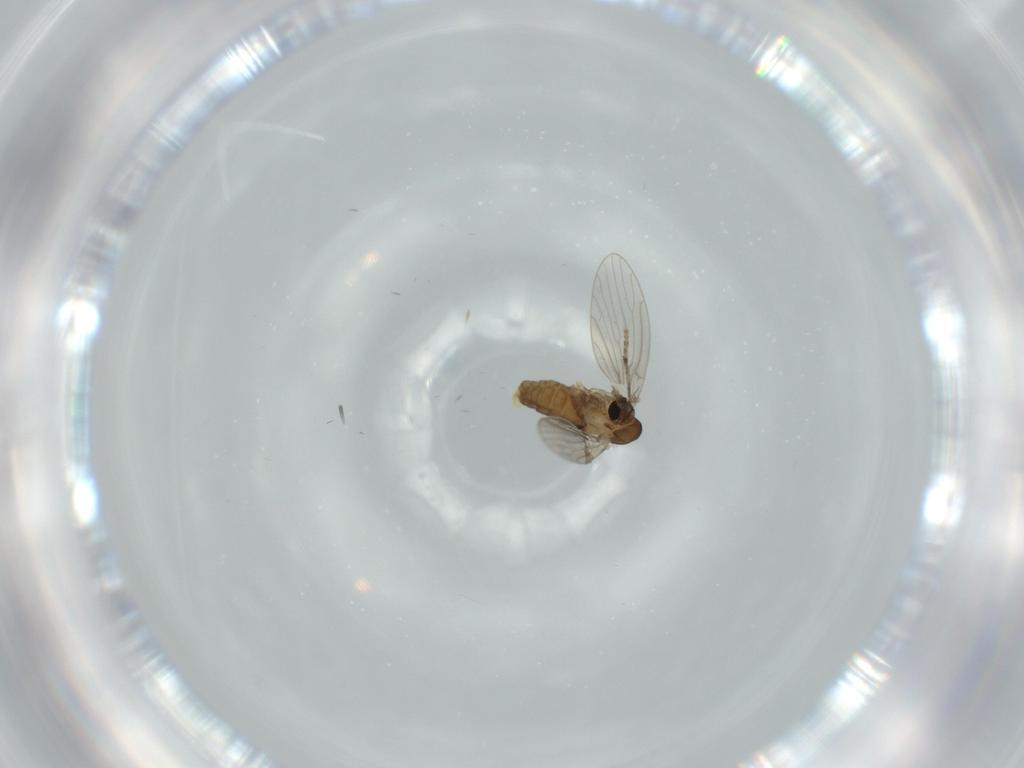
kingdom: Animalia
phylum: Arthropoda
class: Insecta
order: Diptera
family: Psychodidae
